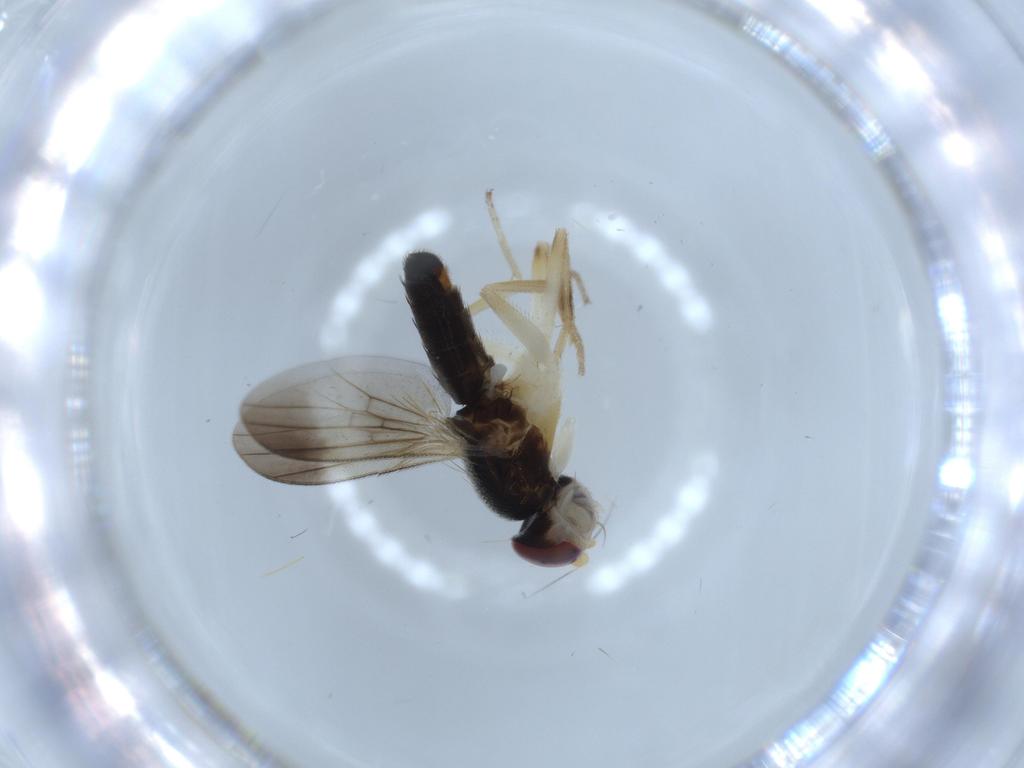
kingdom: Animalia
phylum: Arthropoda
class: Insecta
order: Diptera
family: Clusiidae
